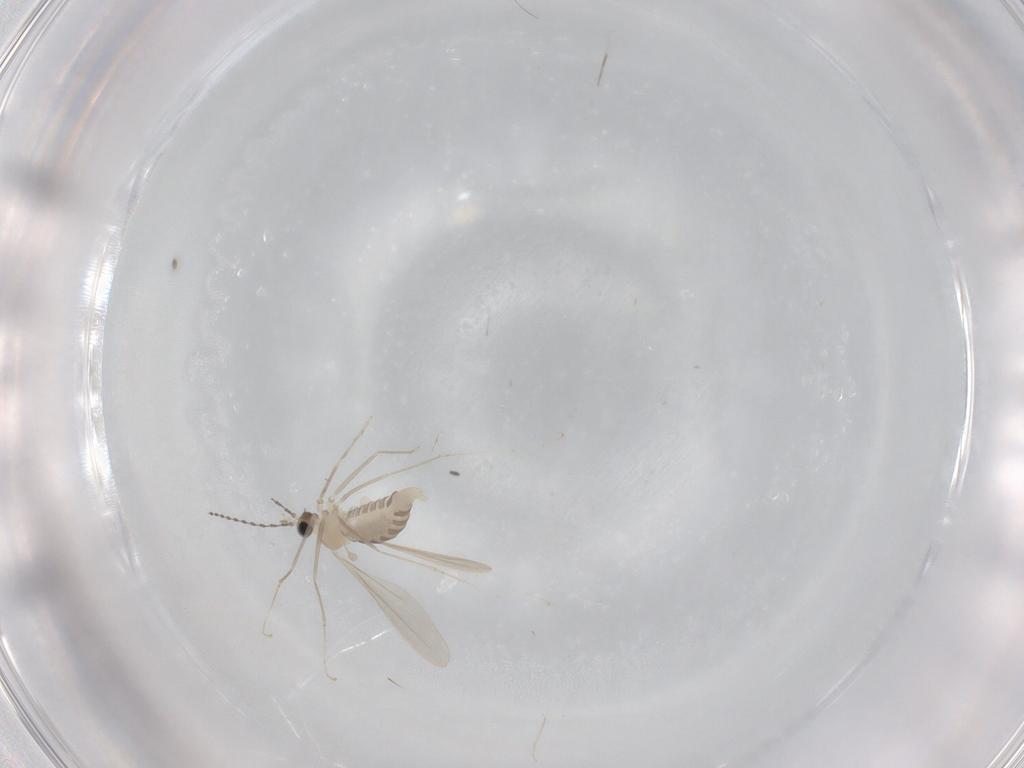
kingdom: Animalia
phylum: Arthropoda
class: Insecta
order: Diptera
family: Cecidomyiidae
